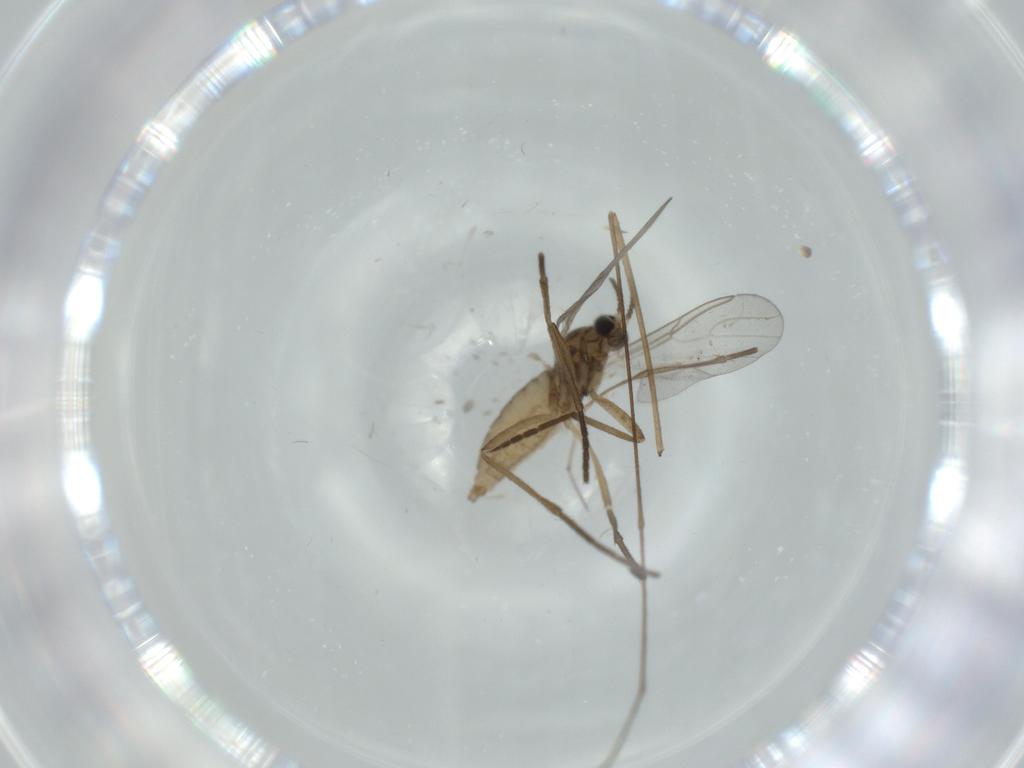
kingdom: Animalia
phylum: Arthropoda
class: Insecta
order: Diptera
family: Cecidomyiidae
